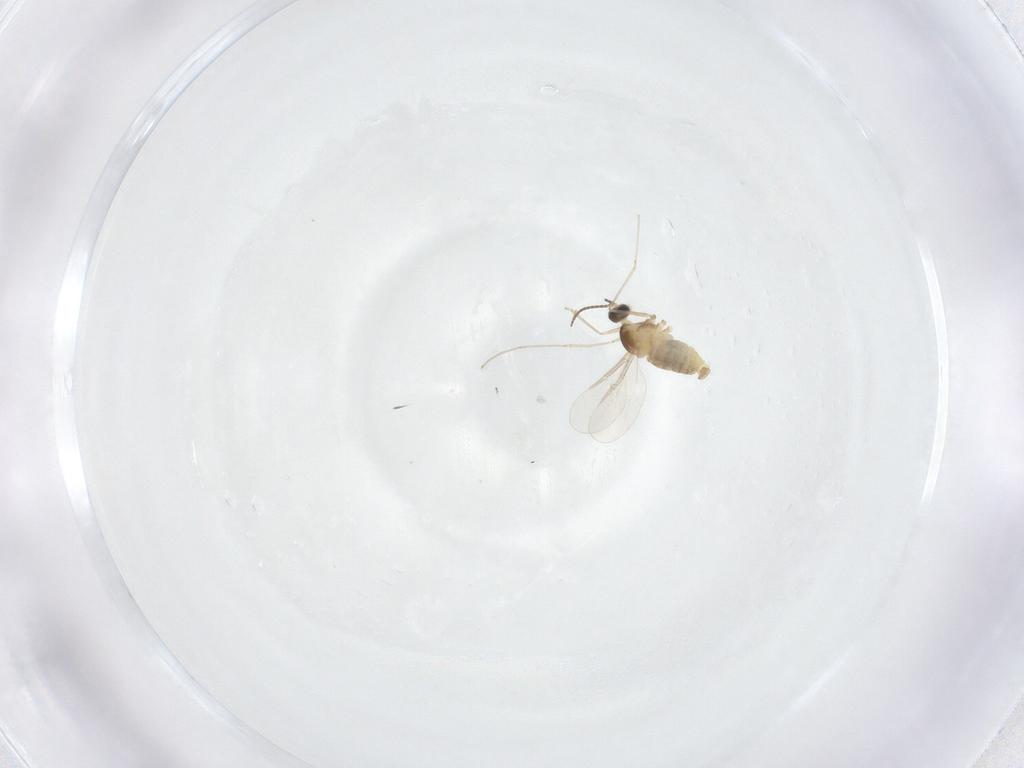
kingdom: Animalia
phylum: Arthropoda
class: Insecta
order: Diptera
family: Cecidomyiidae
